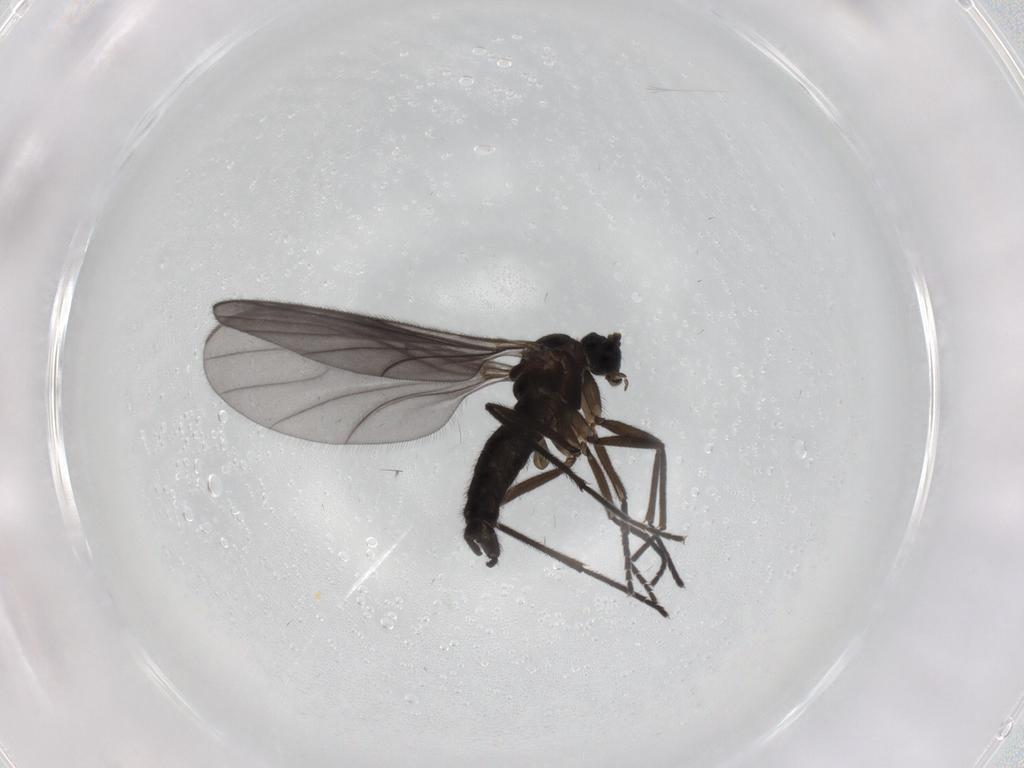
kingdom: Animalia
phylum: Arthropoda
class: Insecta
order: Diptera
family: Sciaridae
